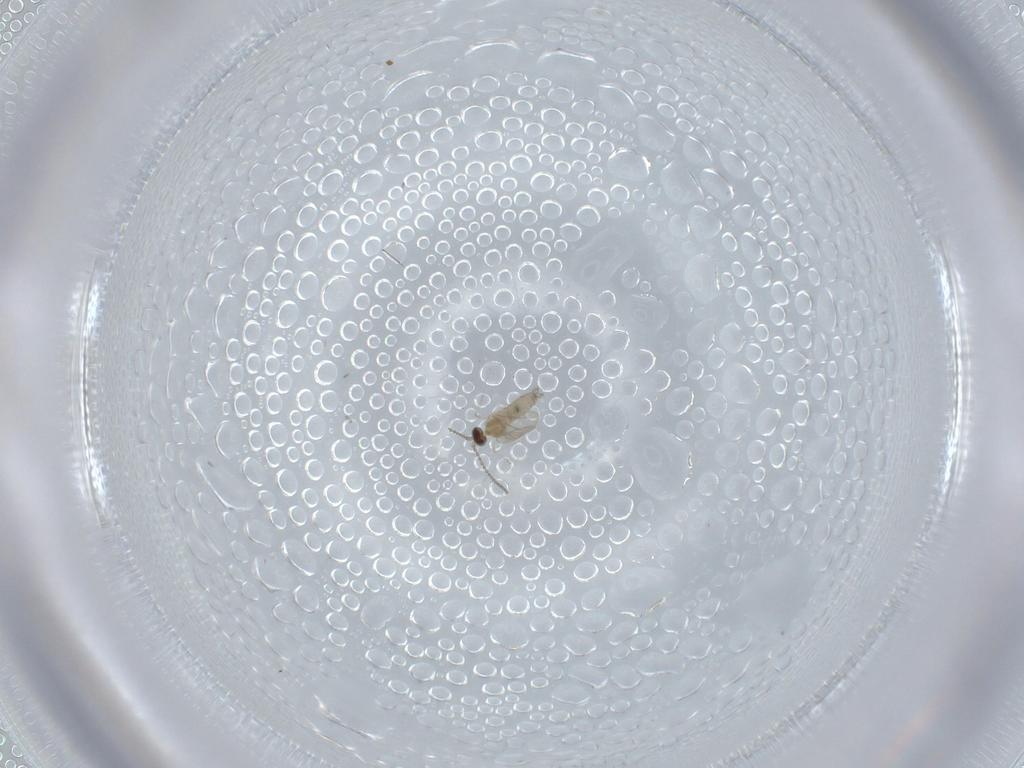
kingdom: Animalia
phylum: Arthropoda
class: Insecta
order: Diptera
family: Cecidomyiidae
